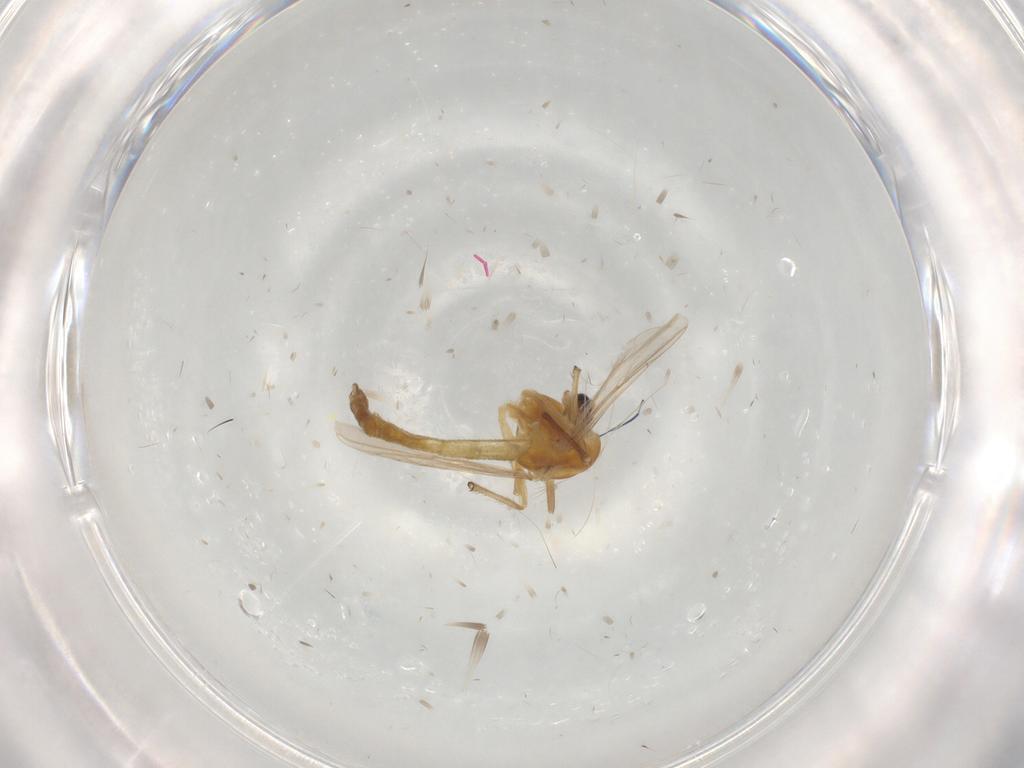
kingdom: Animalia
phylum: Arthropoda
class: Insecta
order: Diptera
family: Chironomidae
